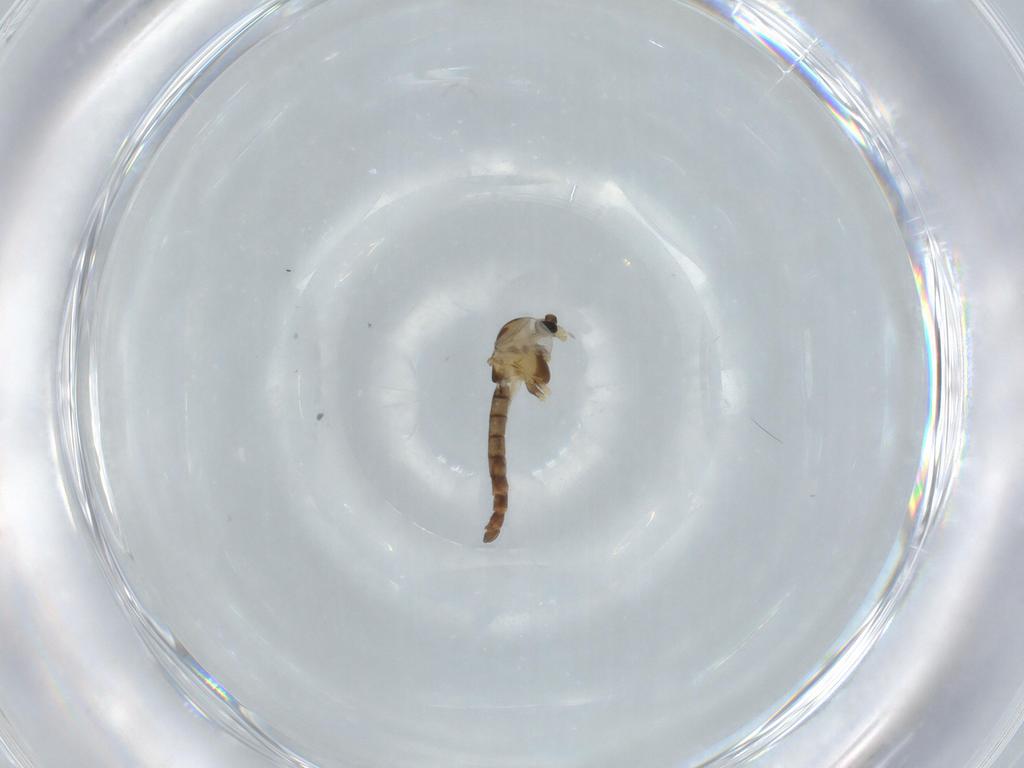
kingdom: Animalia
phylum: Arthropoda
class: Insecta
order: Diptera
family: Chironomidae
